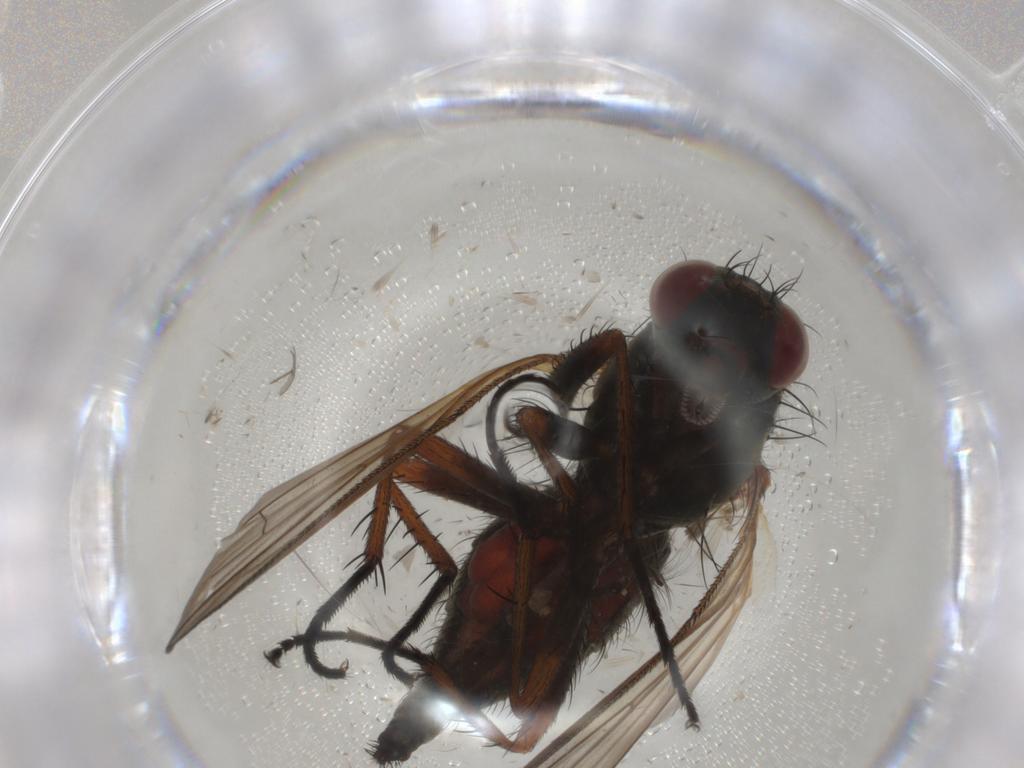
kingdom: Animalia
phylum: Arthropoda
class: Insecta
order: Diptera
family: Anthomyiidae
